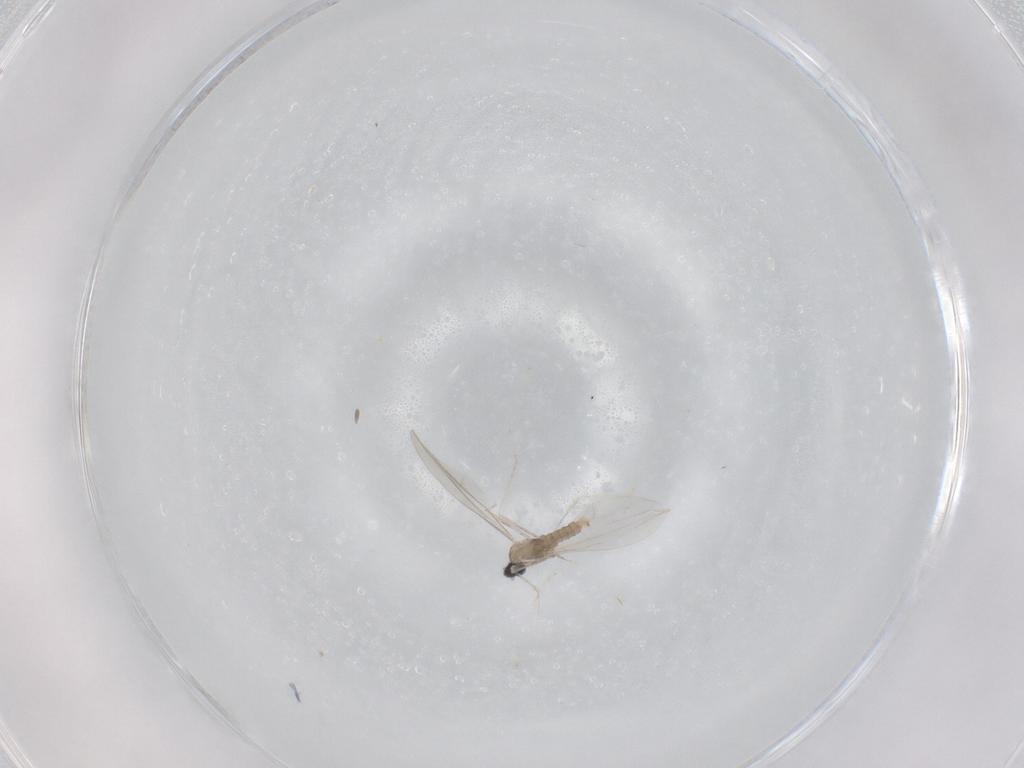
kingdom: Animalia
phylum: Arthropoda
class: Insecta
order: Diptera
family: Cecidomyiidae
